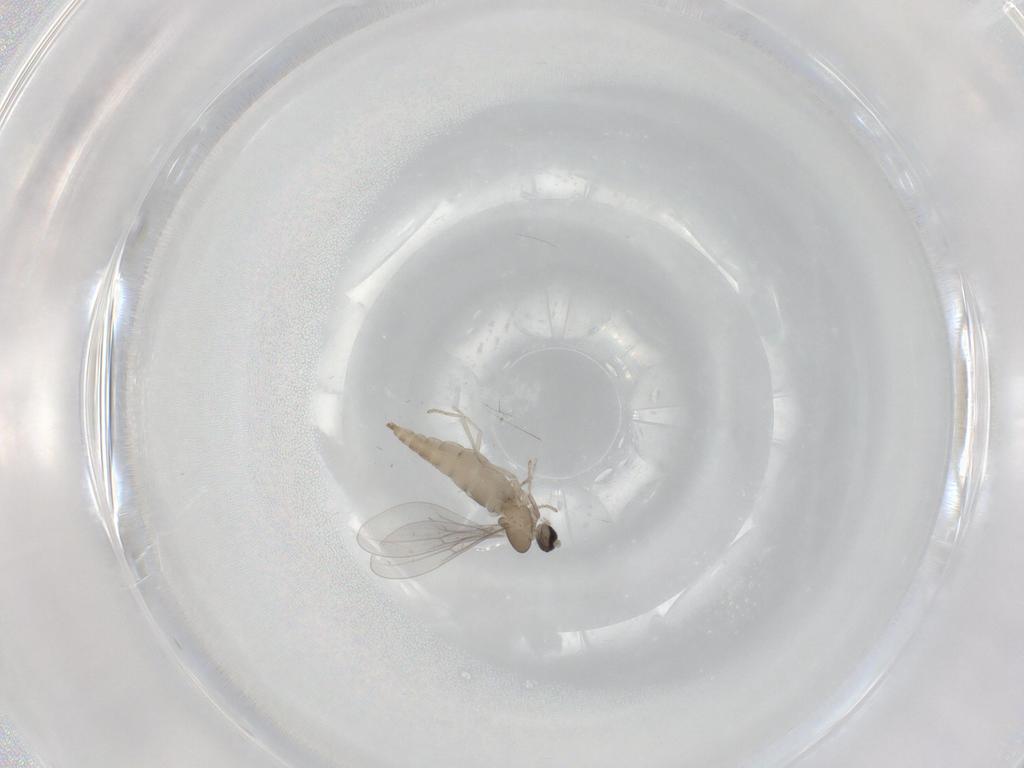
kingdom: Animalia
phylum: Arthropoda
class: Insecta
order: Diptera
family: Cecidomyiidae
